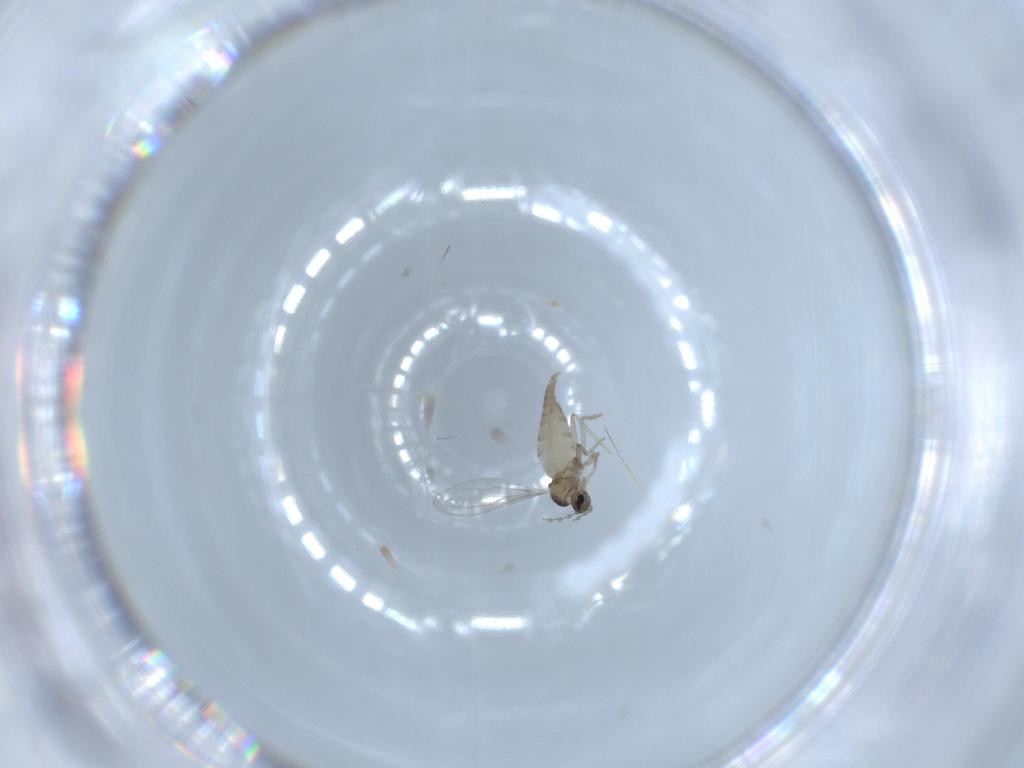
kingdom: Animalia
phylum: Arthropoda
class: Insecta
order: Diptera
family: Cecidomyiidae
